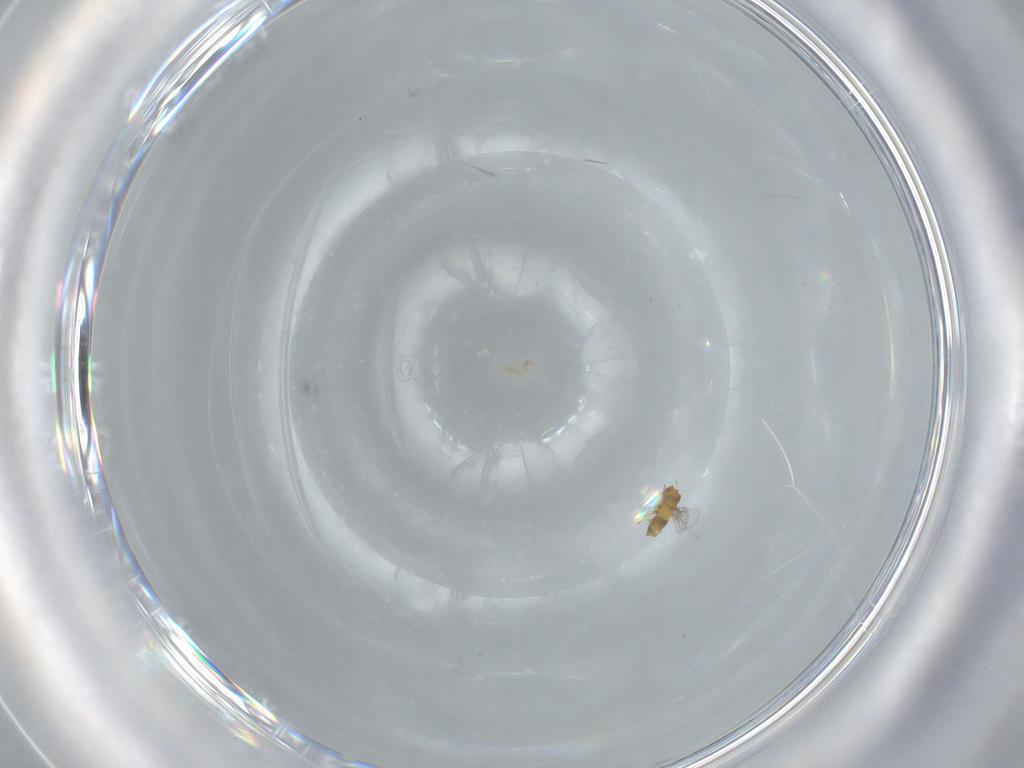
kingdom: Animalia
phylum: Arthropoda
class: Insecta
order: Hymenoptera
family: Trichogrammatidae
